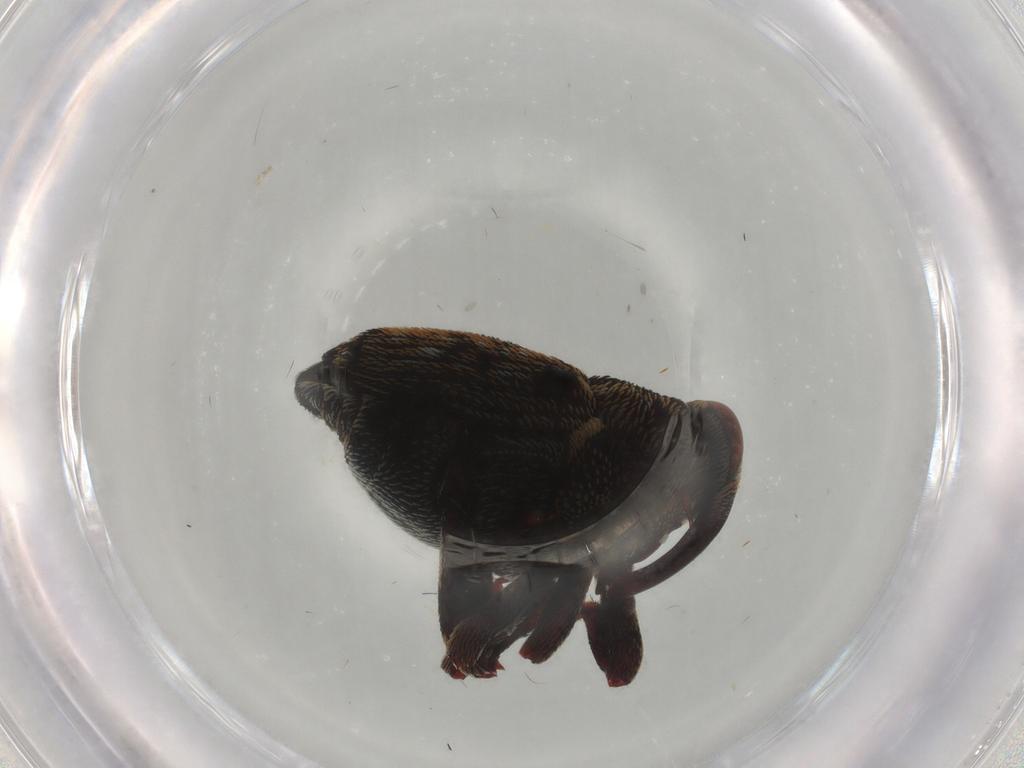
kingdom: Animalia
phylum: Arthropoda
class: Insecta
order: Coleoptera
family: Curculionidae
